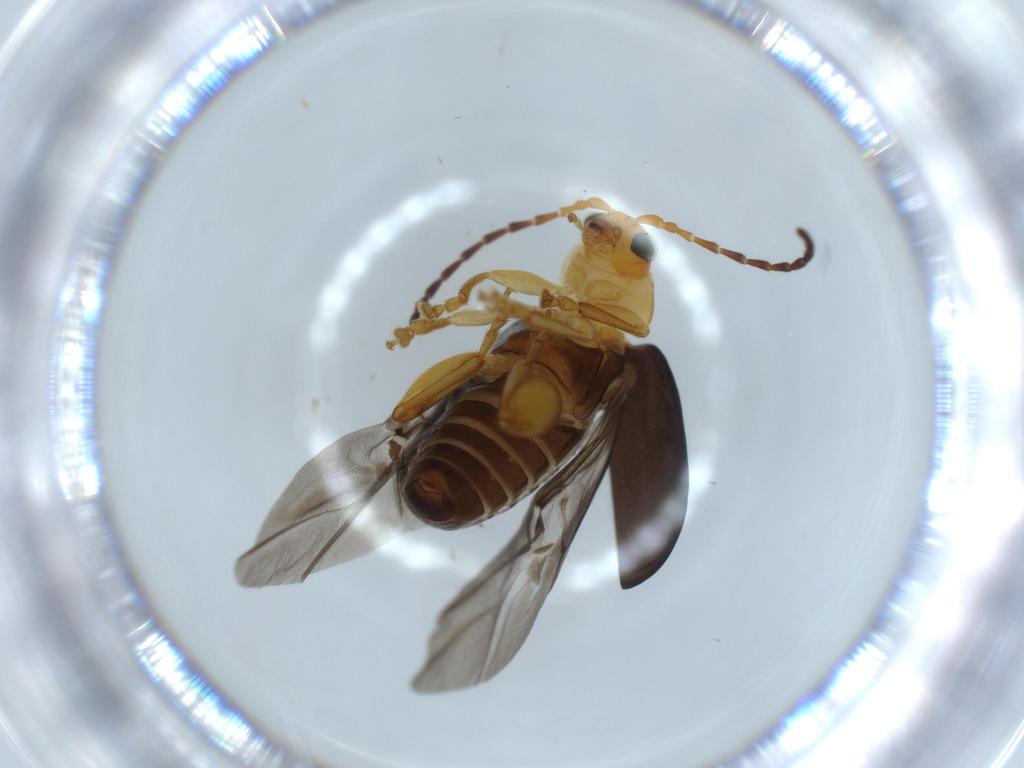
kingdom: Animalia
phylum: Arthropoda
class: Insecta
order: Coleoptera
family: Chrysomelidae
